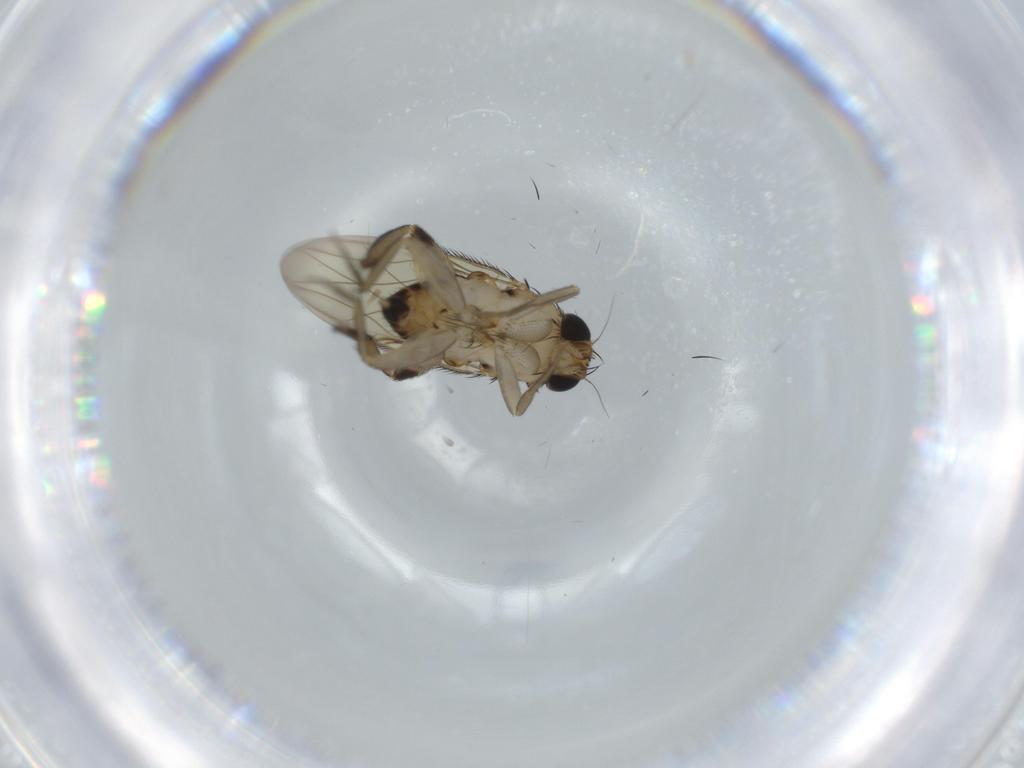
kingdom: Animalia
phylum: Arthropoda
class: Insecta
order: Diptera
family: Phoridae
